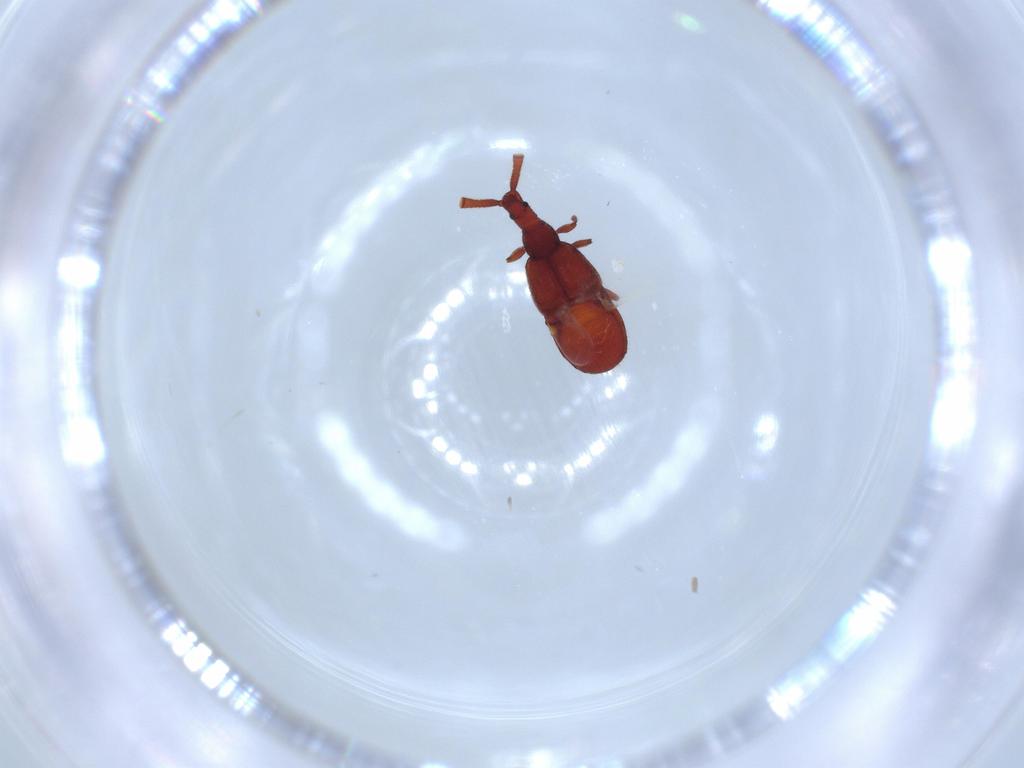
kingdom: Animalia
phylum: Arthropoda
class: Insecta
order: Coleoptera
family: Staphylinidae
